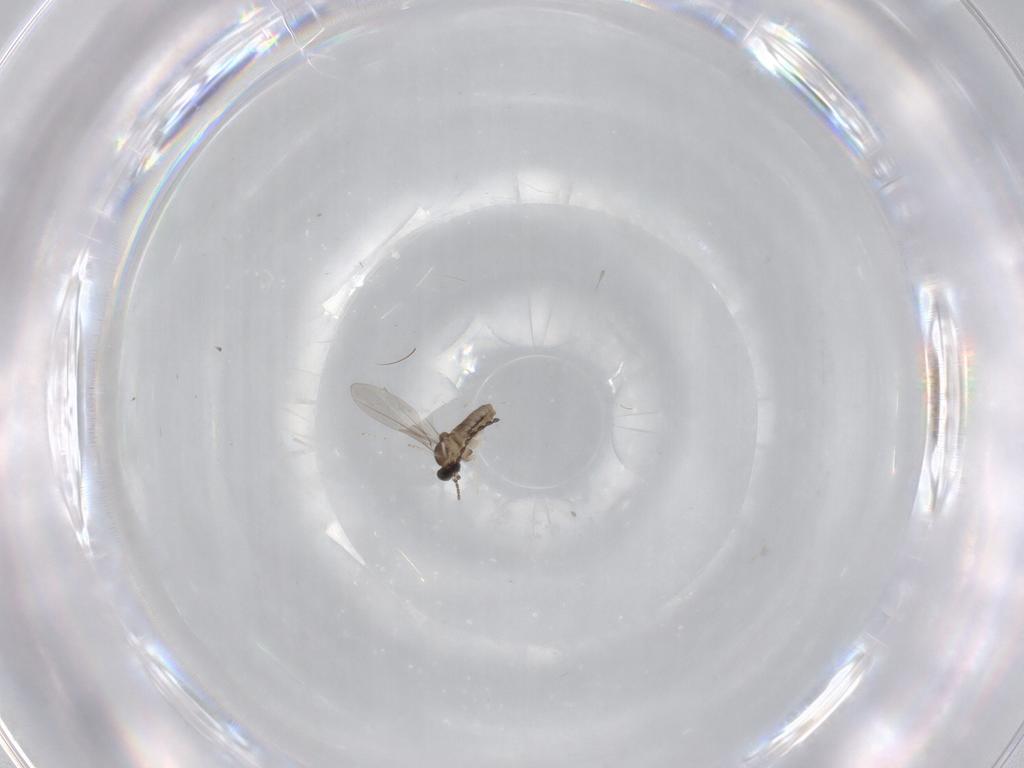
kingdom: Animalia
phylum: Arthropoda
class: Insecta
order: Diptera
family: Cecidomyiidae
